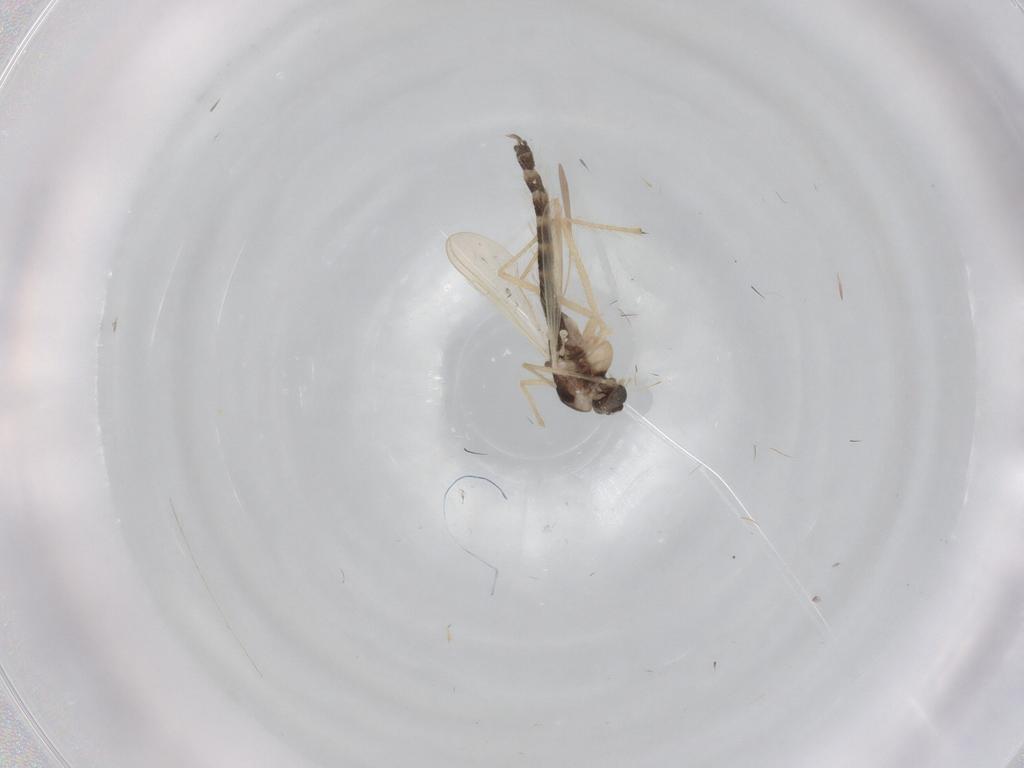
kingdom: Animalia
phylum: Arthropoda
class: Insecta
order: Diptera
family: Chironomidae
